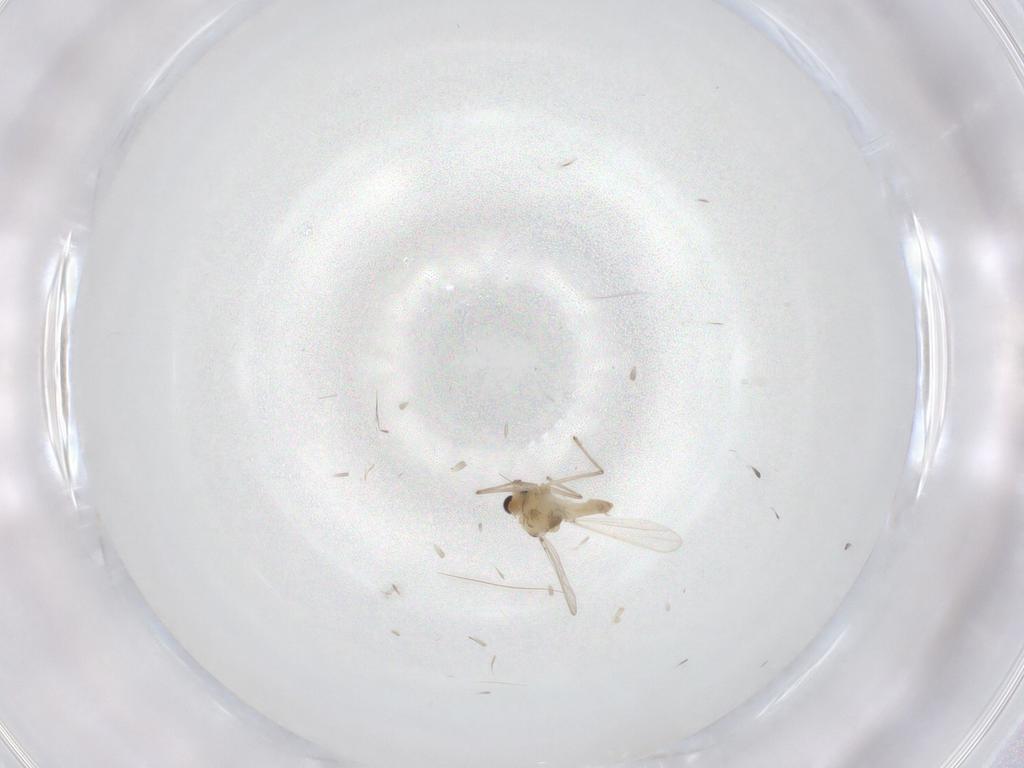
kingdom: Animalia
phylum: Arthropoda
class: Insecta
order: Diptera
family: Chironomidae
